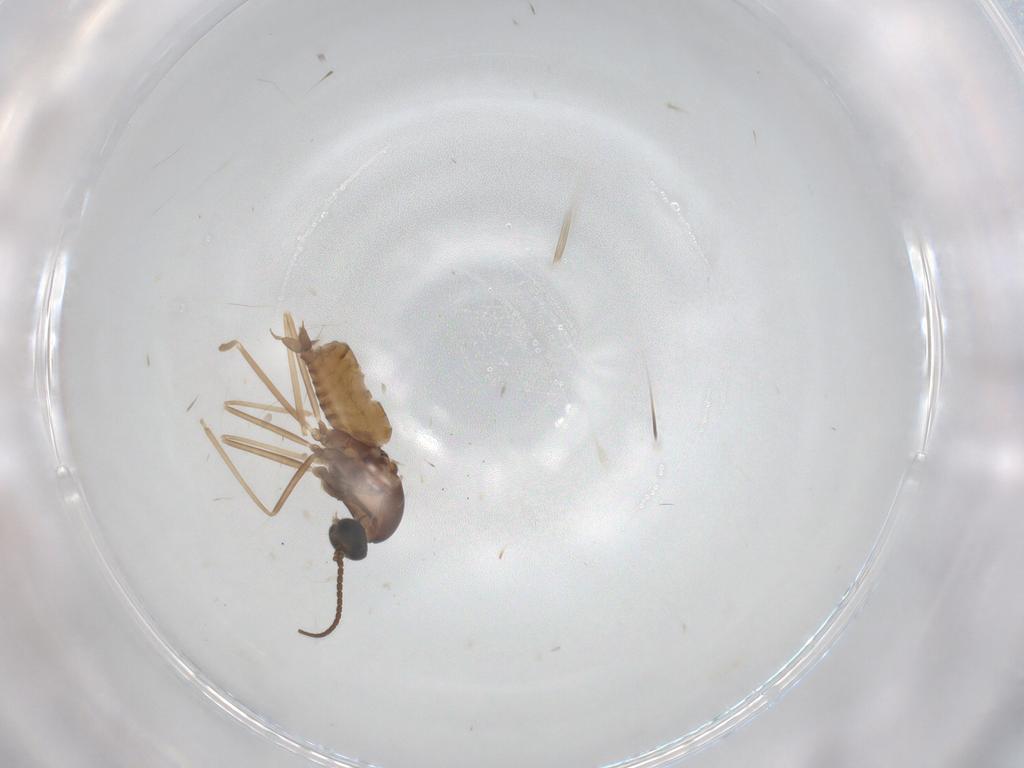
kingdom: Animalia
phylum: Arthropoda
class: Insecta
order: Diptera
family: Cecidomyiidae
